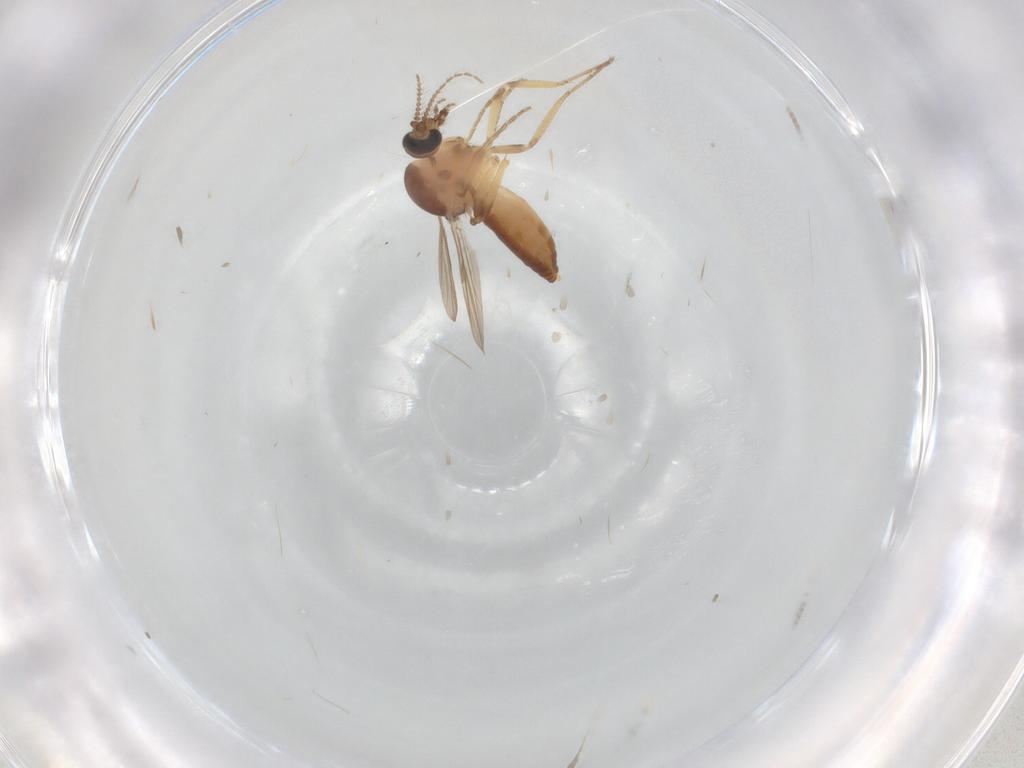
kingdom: Animalia
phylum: Arthropoda
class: Insecta
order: Diptera
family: Ceratopogonidae
